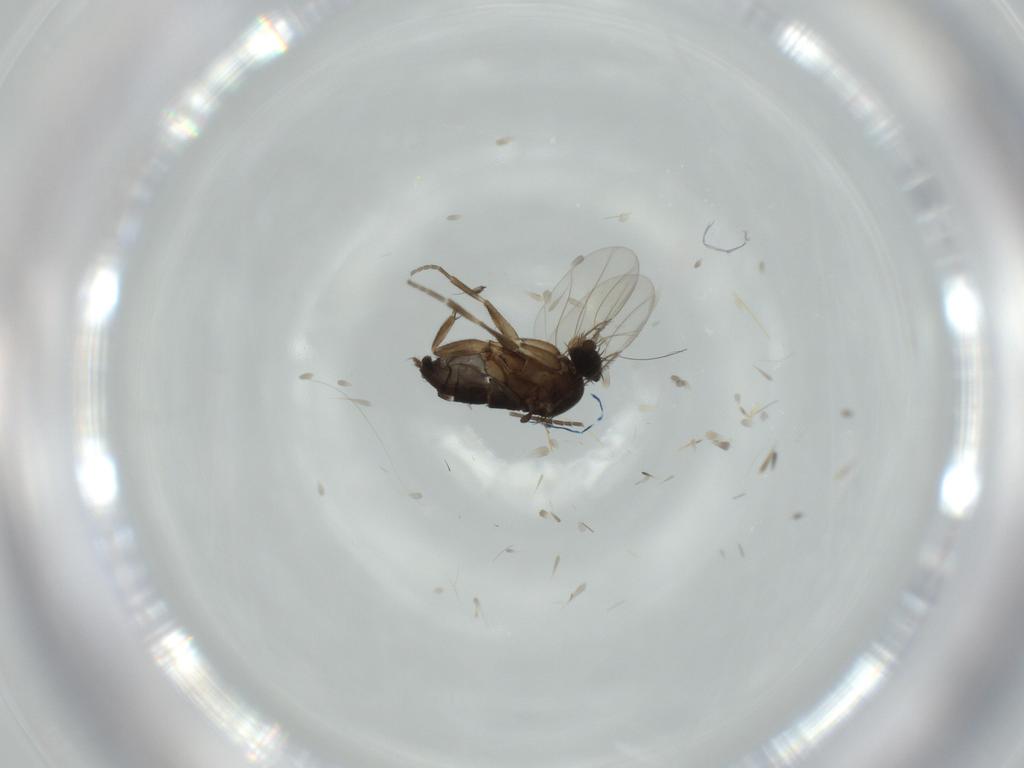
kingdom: Animalia
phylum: Arthropoda
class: Insecta
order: Diptera
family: Phoridae
